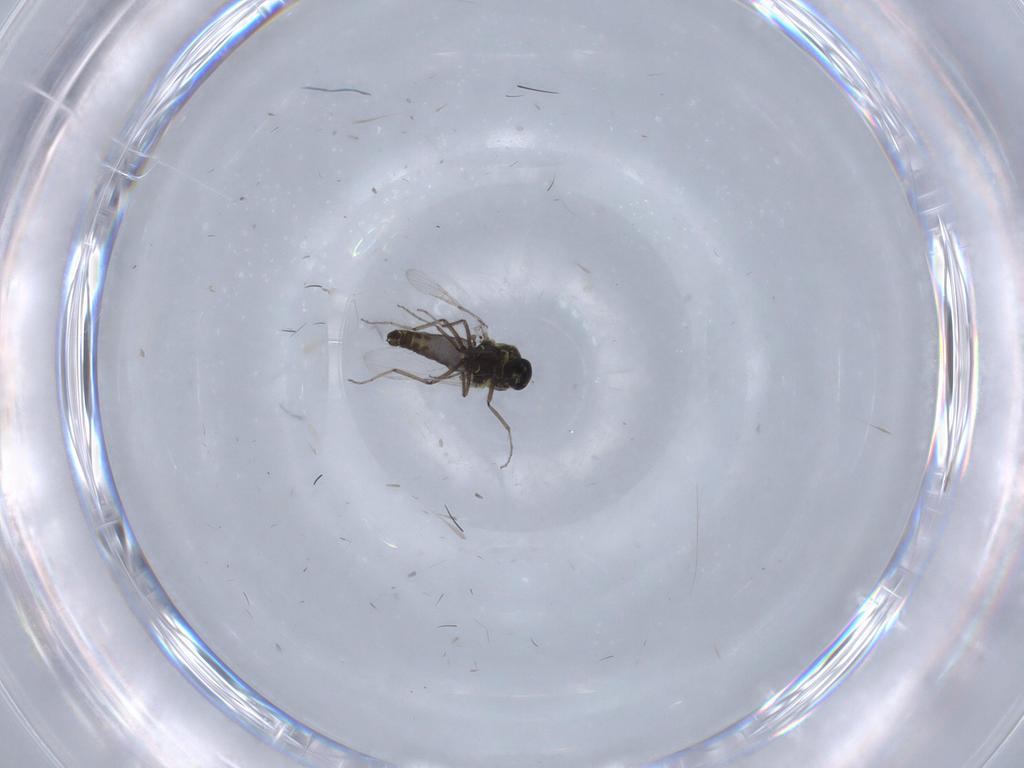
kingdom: Animalia
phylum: Arthropoda
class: Insecta
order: Diptera
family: Ceratopogonidae
